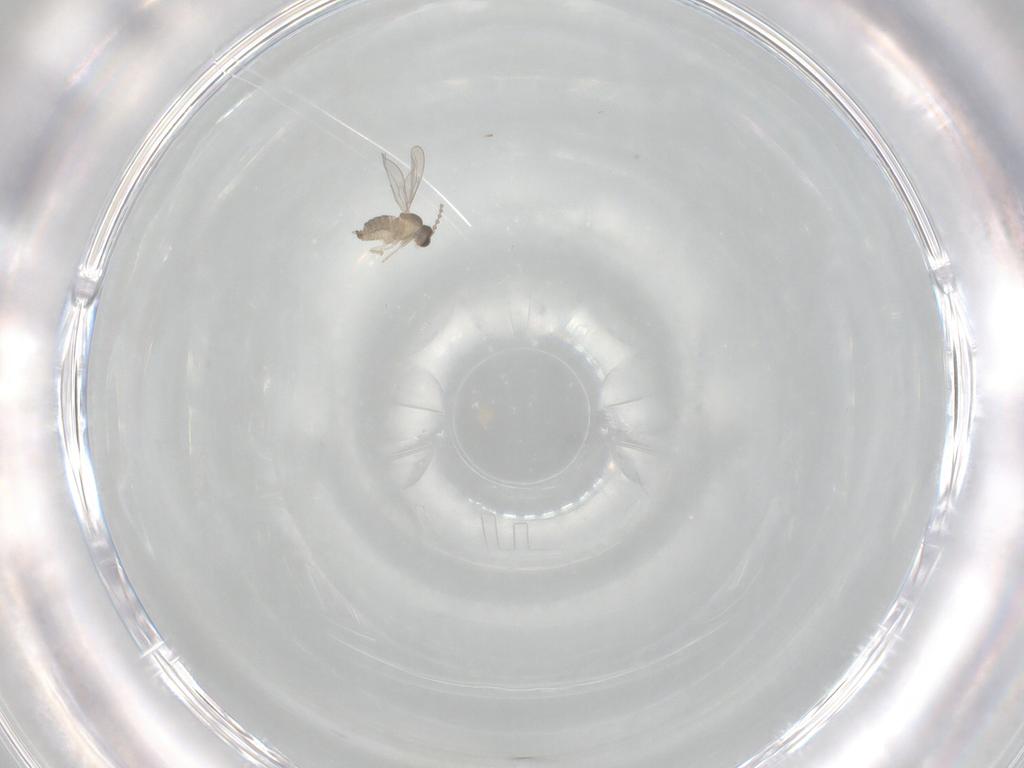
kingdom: Animalia
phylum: Arthropoda
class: Insecta
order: Diptera
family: Cecidomyiidae
